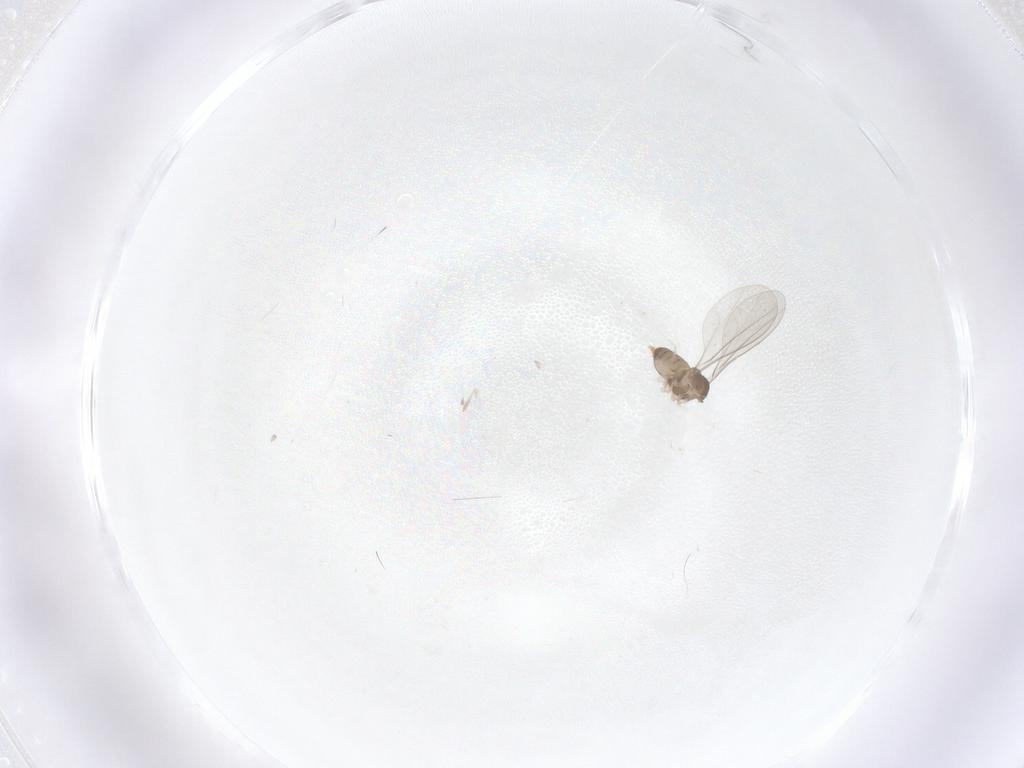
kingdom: Animalia
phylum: Arthropoda
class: Insecta
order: Diptera
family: Cecidomyiidae
